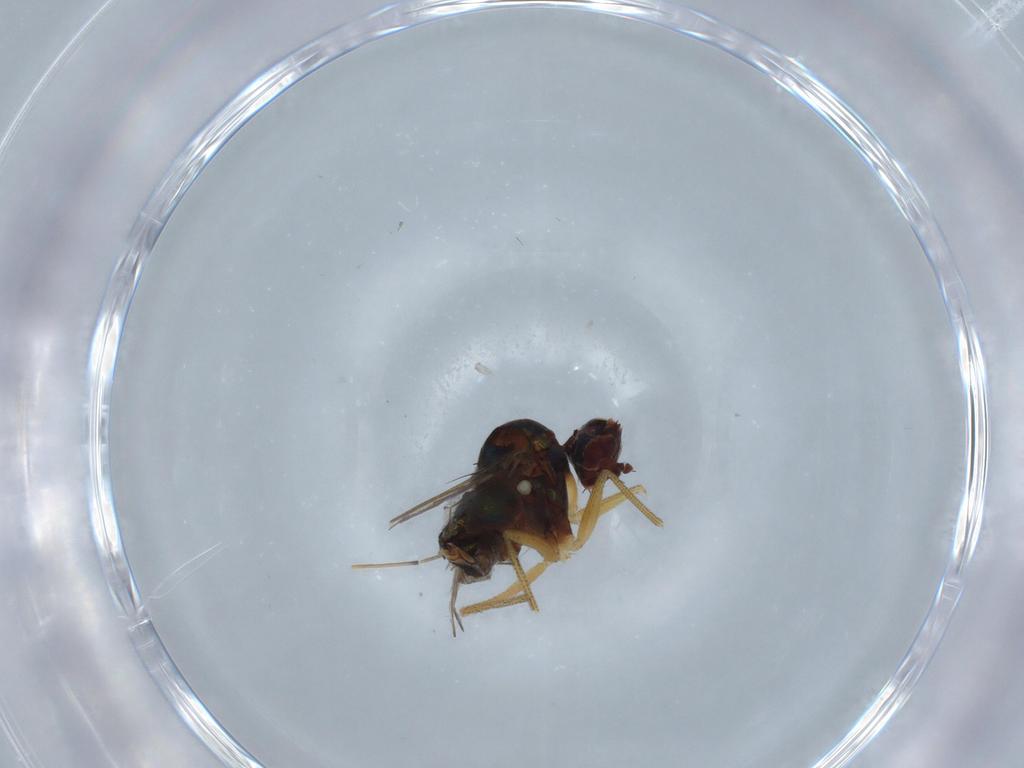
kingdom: Animalia
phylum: Arthropoda
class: Insecta
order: Diptera
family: Dolichopodidae
